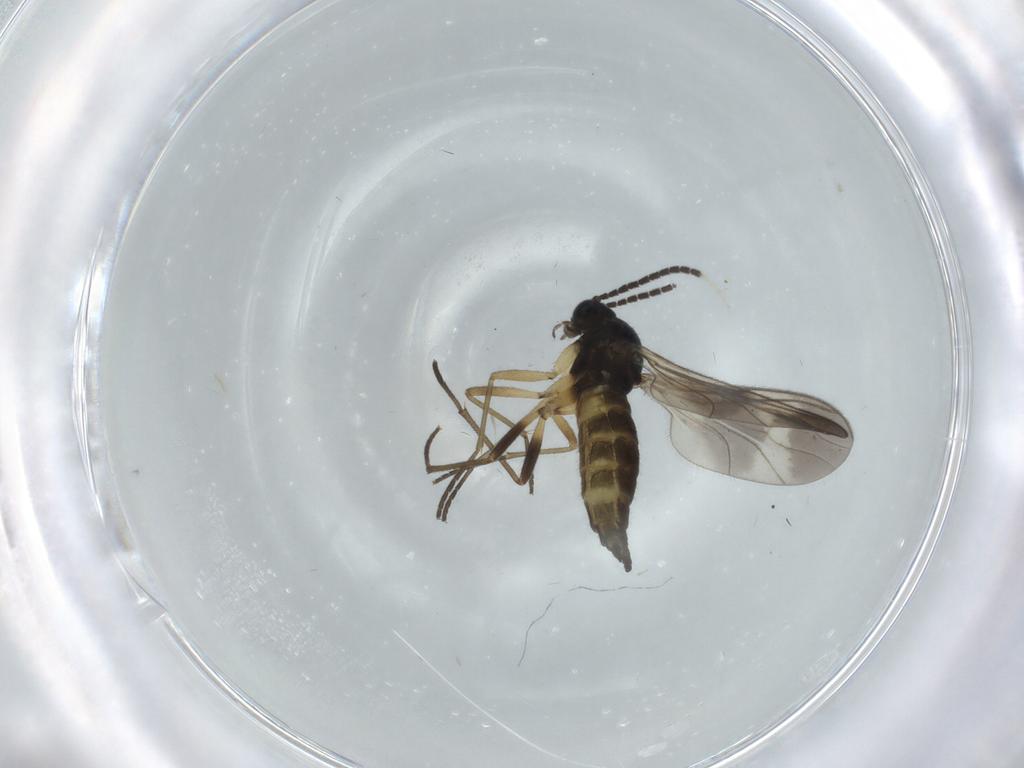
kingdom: Animalia
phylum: Arthropoda
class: Insecta
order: Diptera
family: Sciaridae
